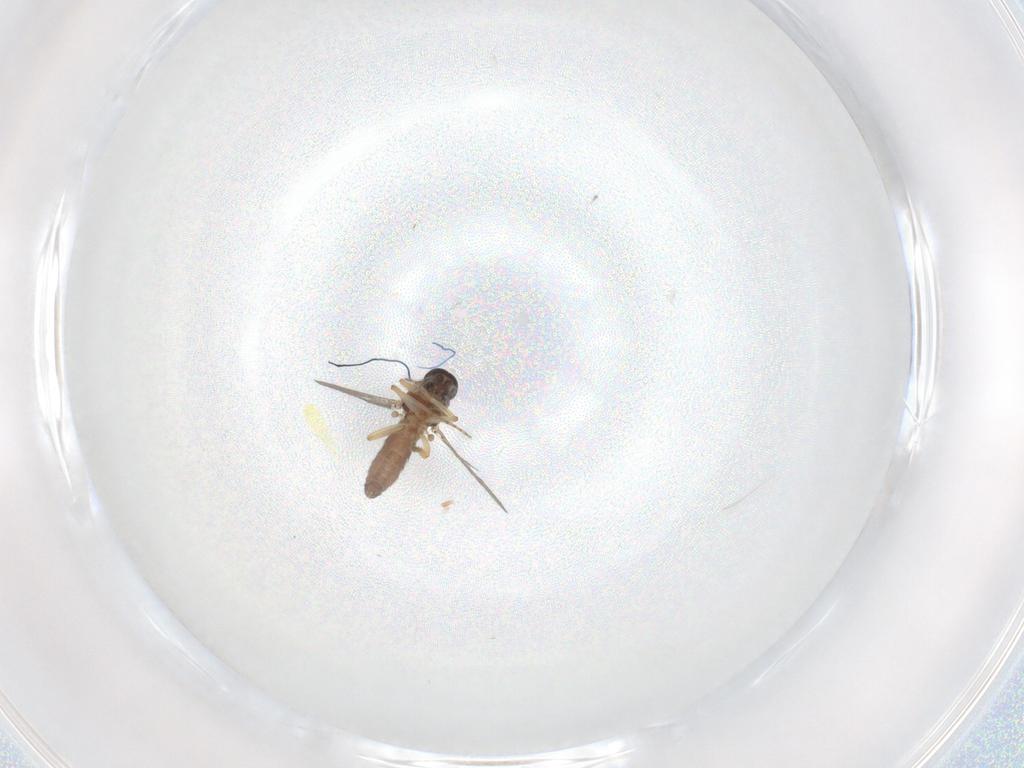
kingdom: Animalia
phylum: Arthropoda
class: Insecta
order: Diptera
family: Ceratopogonidae
